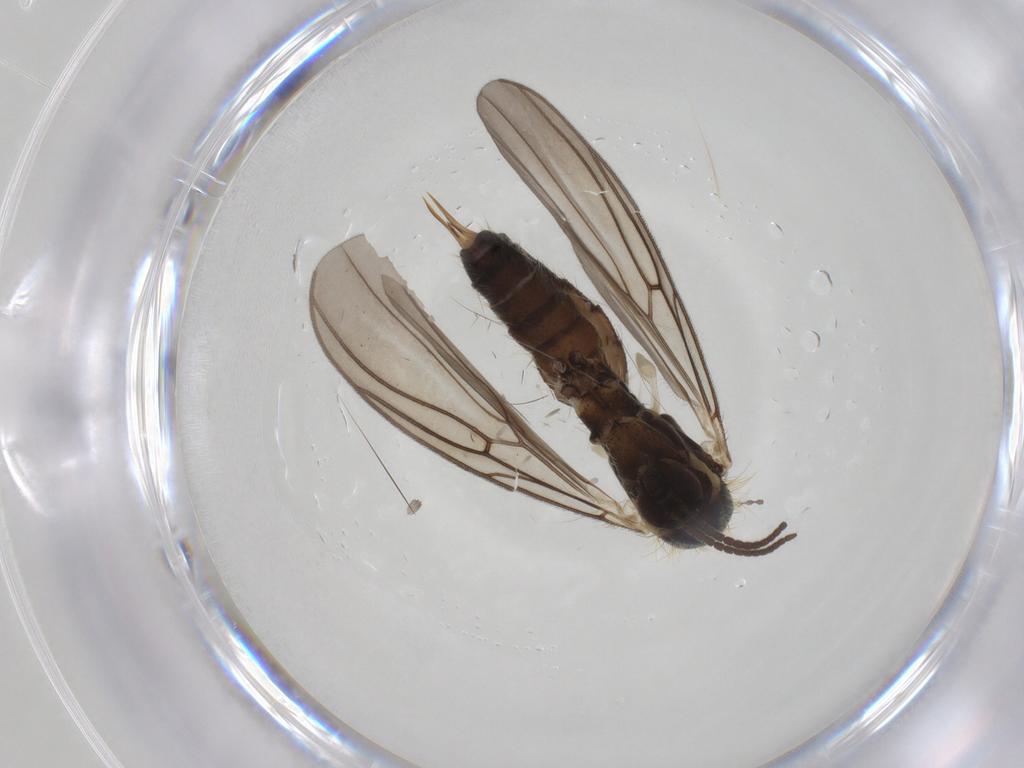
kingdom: Animalia
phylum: Arthropoda
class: Insecta
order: Diptera
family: Mycetophilidae
